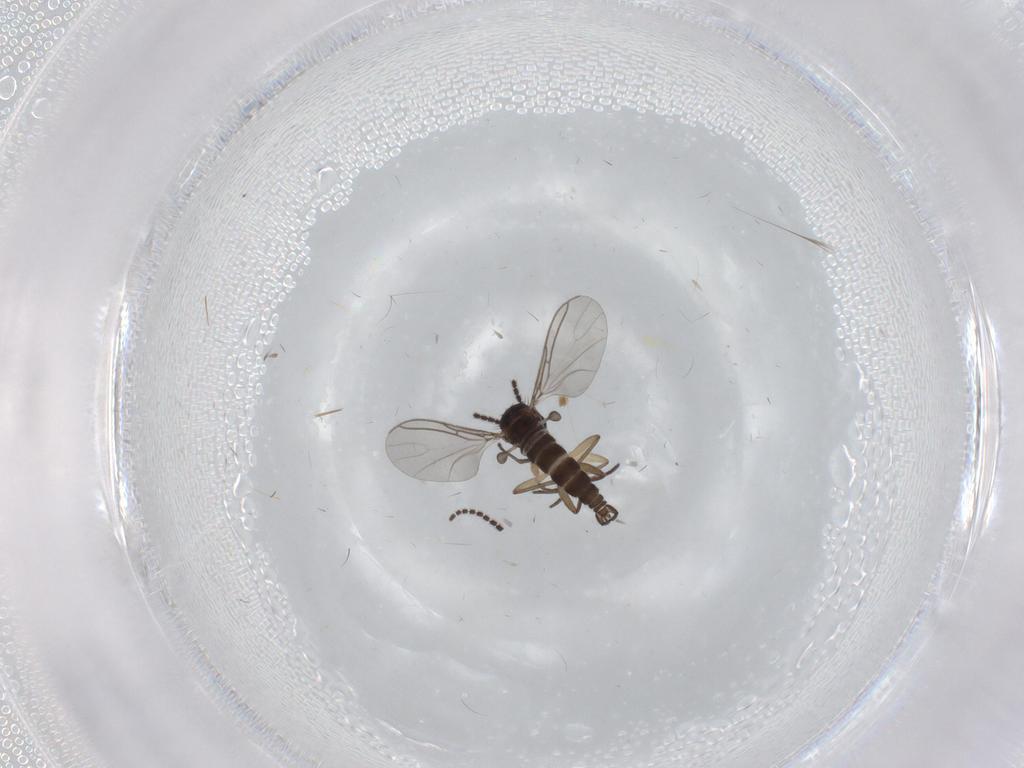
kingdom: Animalia
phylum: Arthropoda
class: Insecta
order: Diptera
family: Sciaridae
